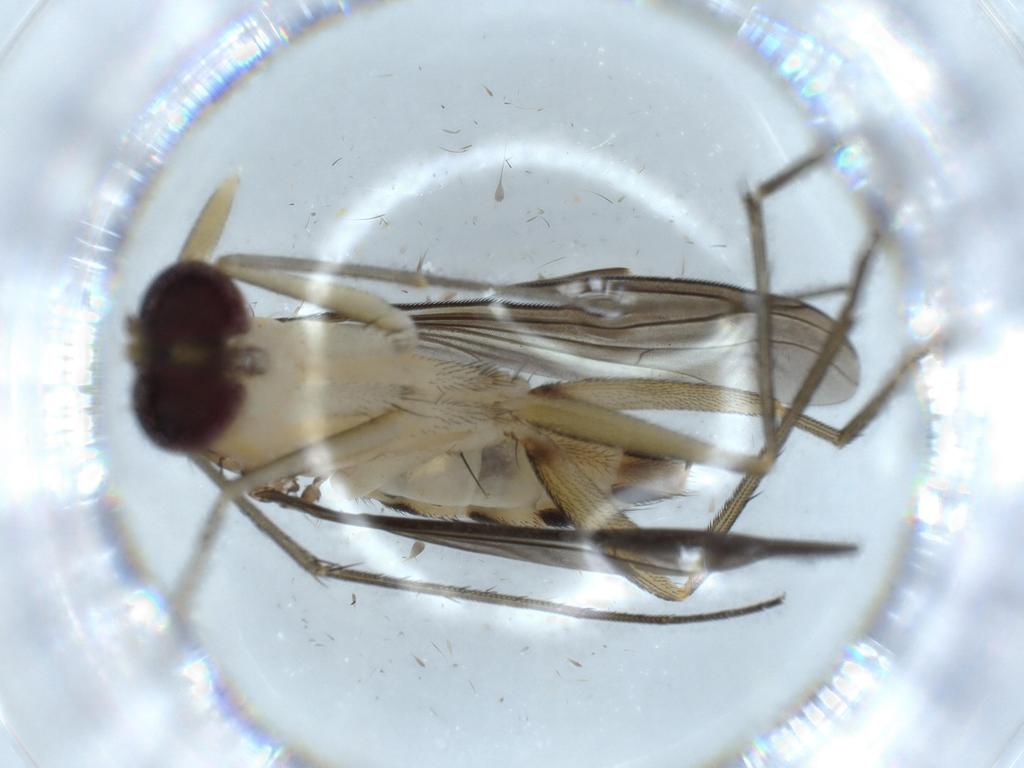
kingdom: Animalia
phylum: Arthropoda
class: Insecta
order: Diptera
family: Dolichopodidae
